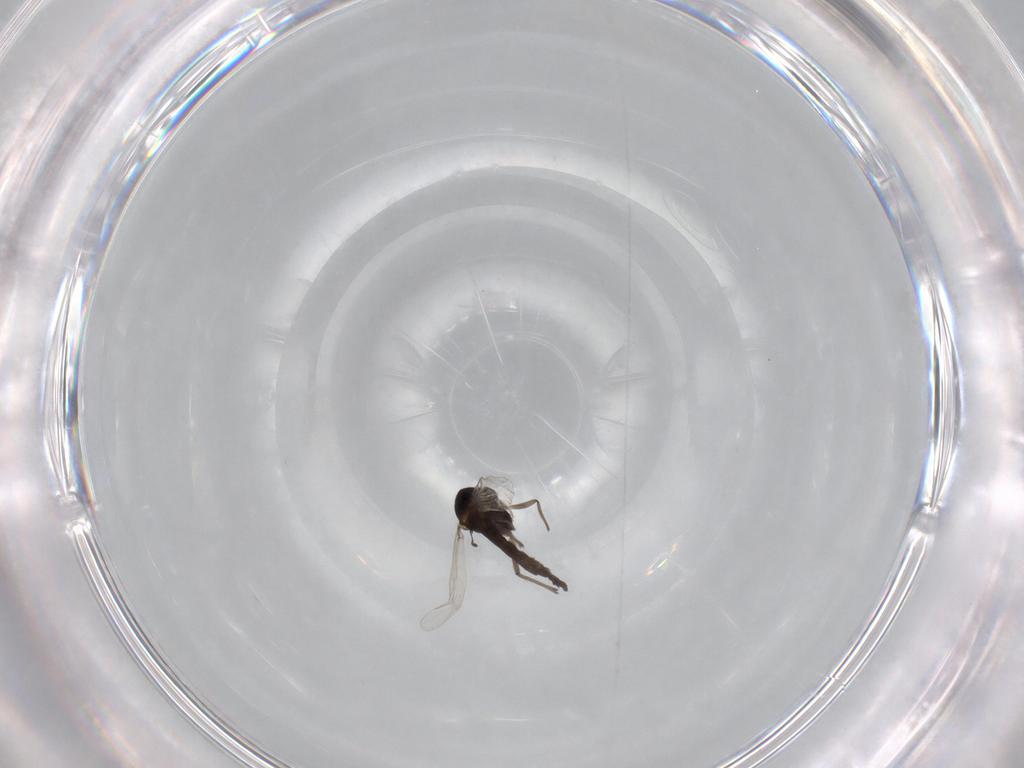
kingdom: Animalia
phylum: Arthropoda
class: Insecta
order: Diptera
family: Chironomidae
